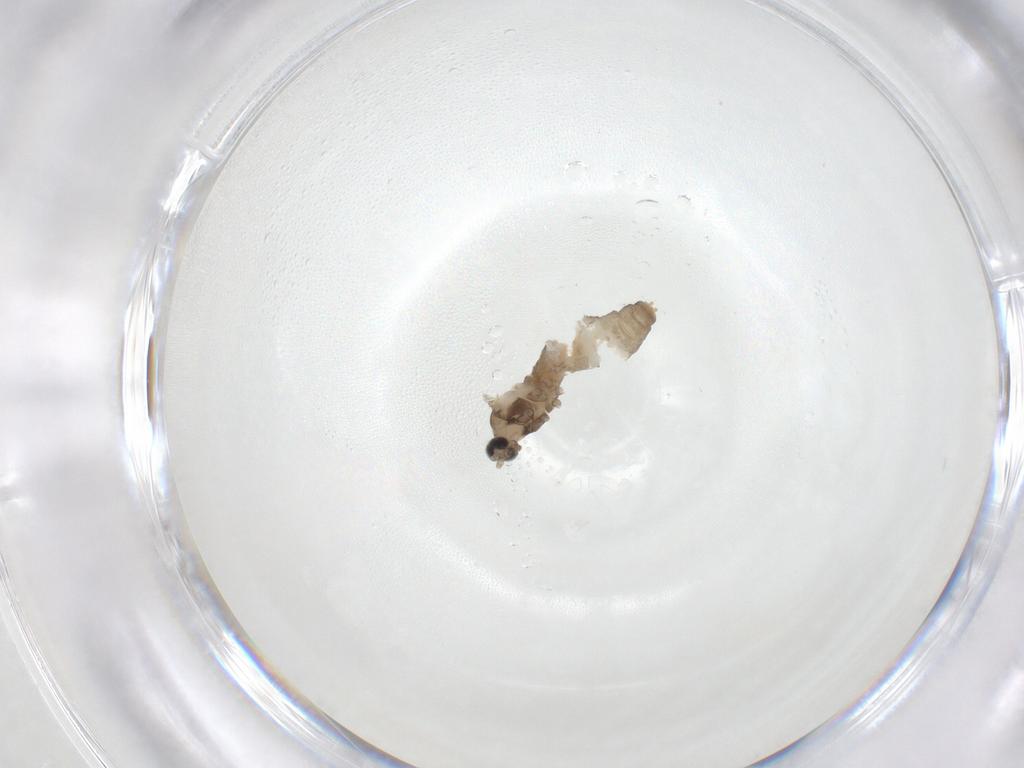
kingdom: Animalia
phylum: Arthropoda
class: Insecta
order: Diptera
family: Cecidomyiidae
